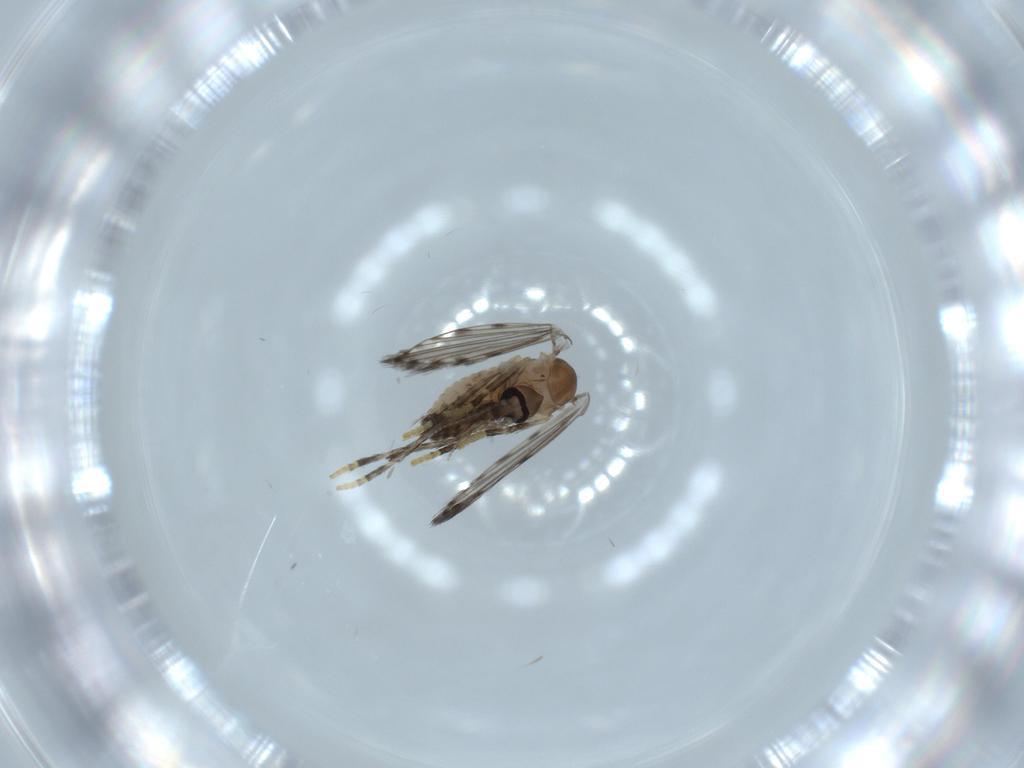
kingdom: Animalia
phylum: Arthropoda
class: Insecta
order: Diptera
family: Psychodidae
